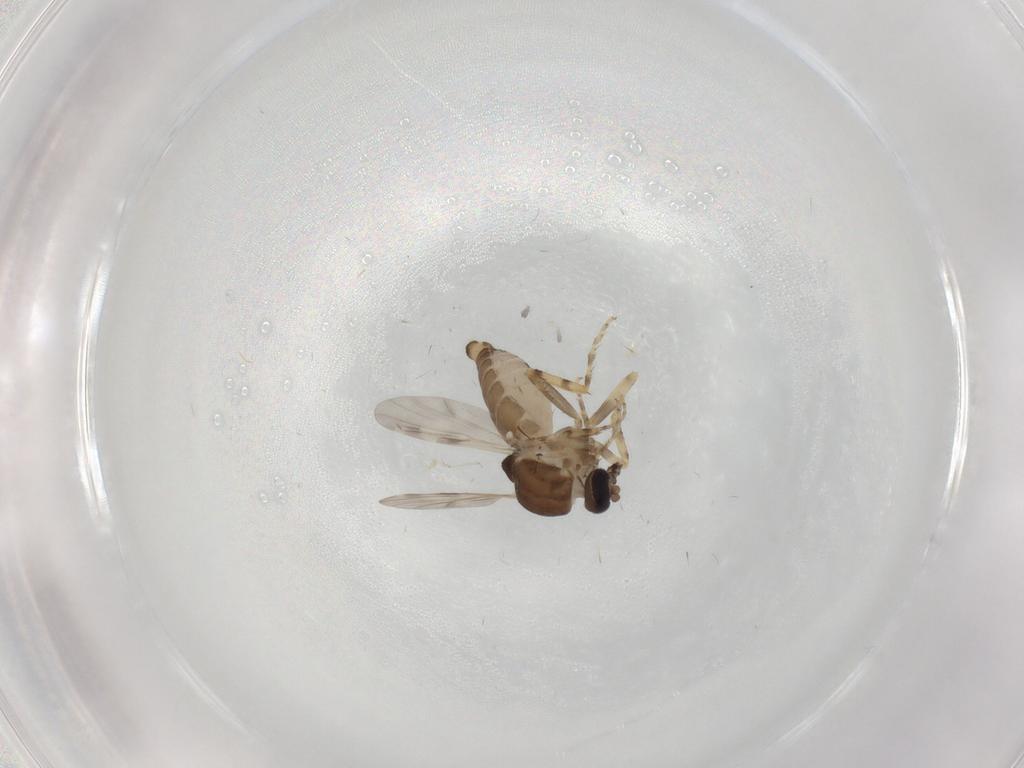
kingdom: Animalia
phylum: Arthropoda
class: Insecta
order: Diptera
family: Ceratopogonidae
